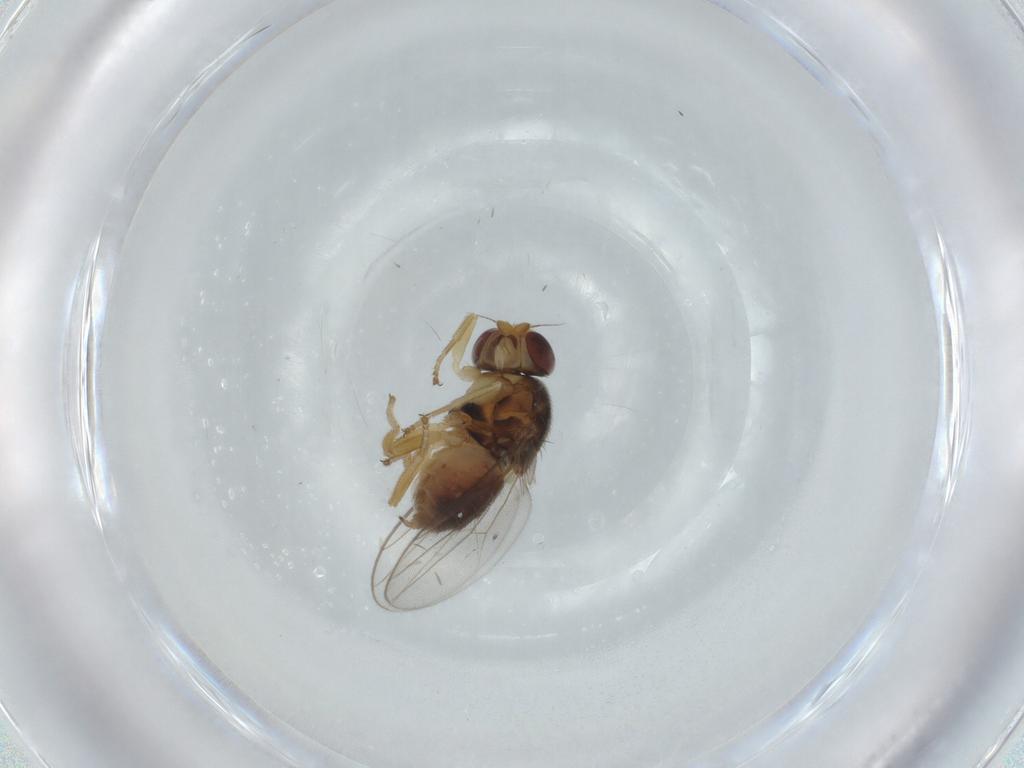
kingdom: Animalia
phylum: Arthropoda
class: Insecta
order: Diptera
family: Chloropidae
